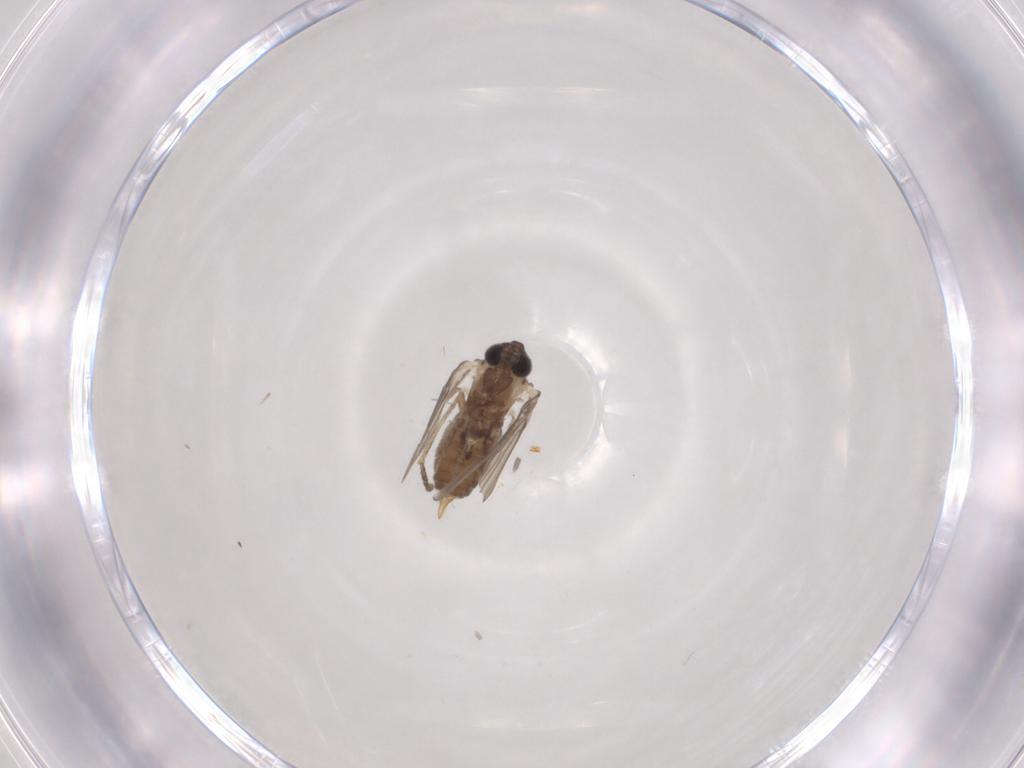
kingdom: Animalia
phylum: Arthropoda
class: Insecta
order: Diptera
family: Psychodidae
